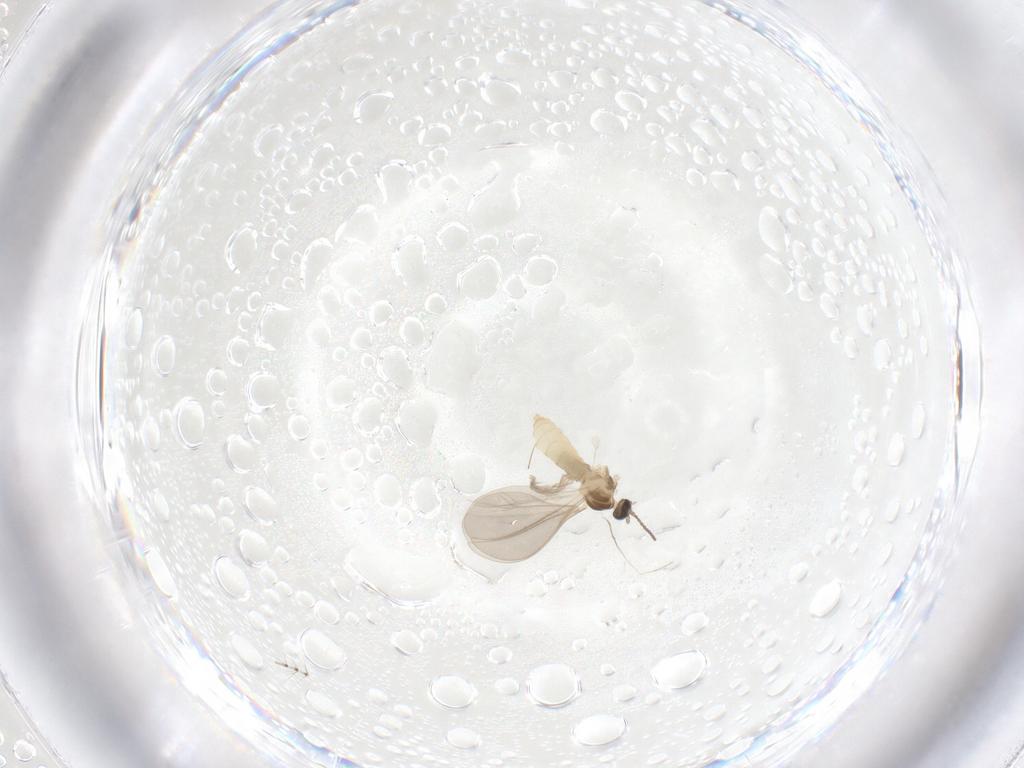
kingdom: Animalia
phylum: Arthropoda
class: Insecta
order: Diptera
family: Cecidomyiidae
